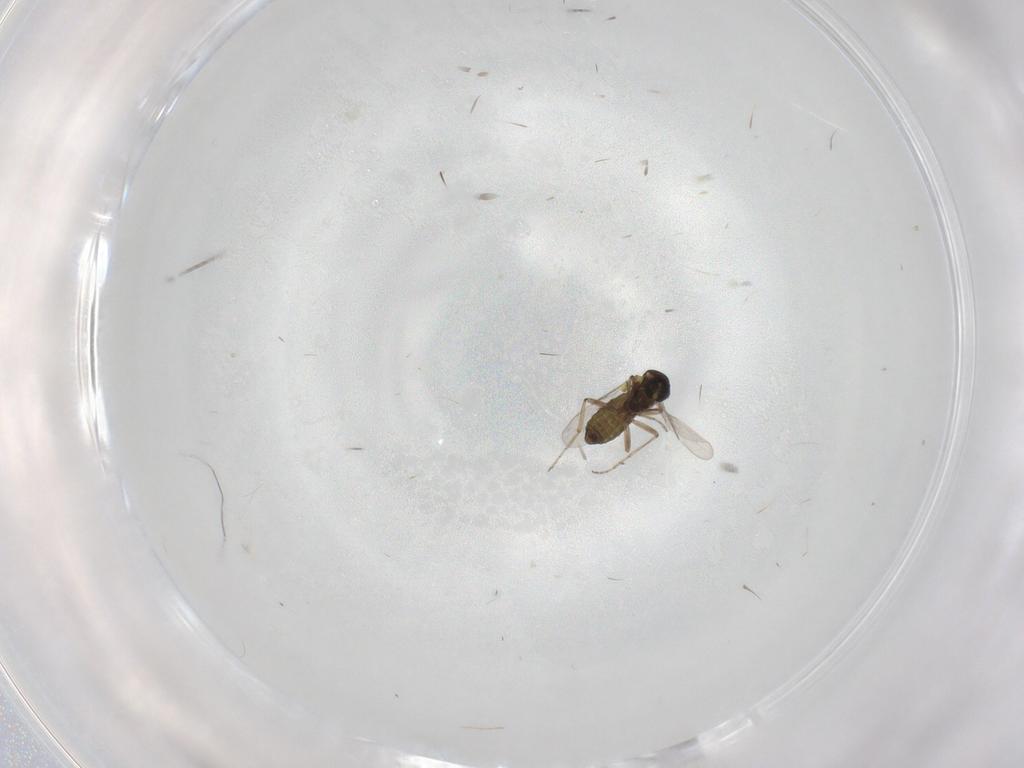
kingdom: Animalia
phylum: Arthropoda
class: Insecta
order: Diptera
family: Ceratopogonidae
